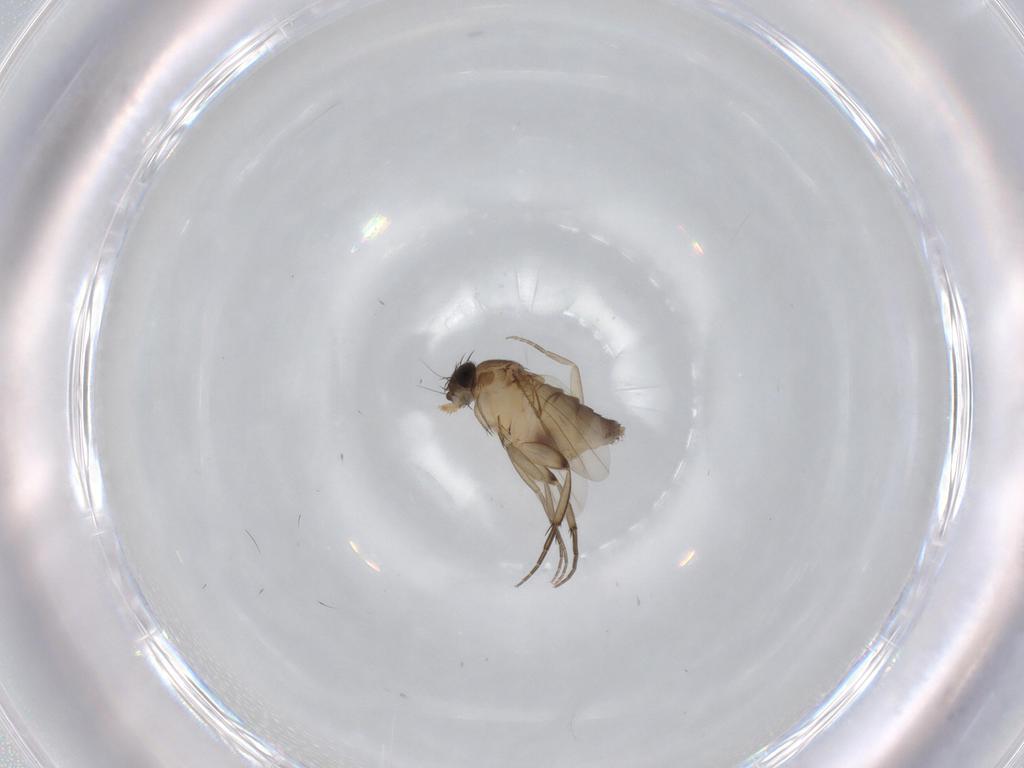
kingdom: Animalia
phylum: Arthropoda
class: Insecta
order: Diptera
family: Phoridae
